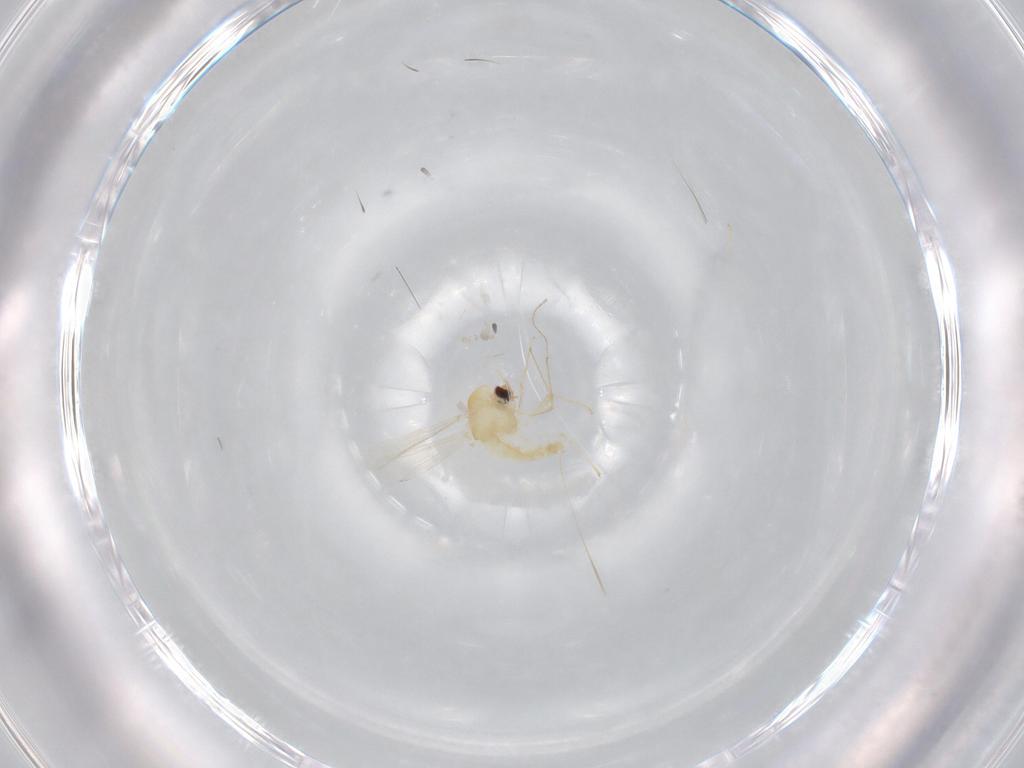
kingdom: Animalia
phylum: Arthropoda
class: Insecta
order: Diptera
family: Chironomidae
